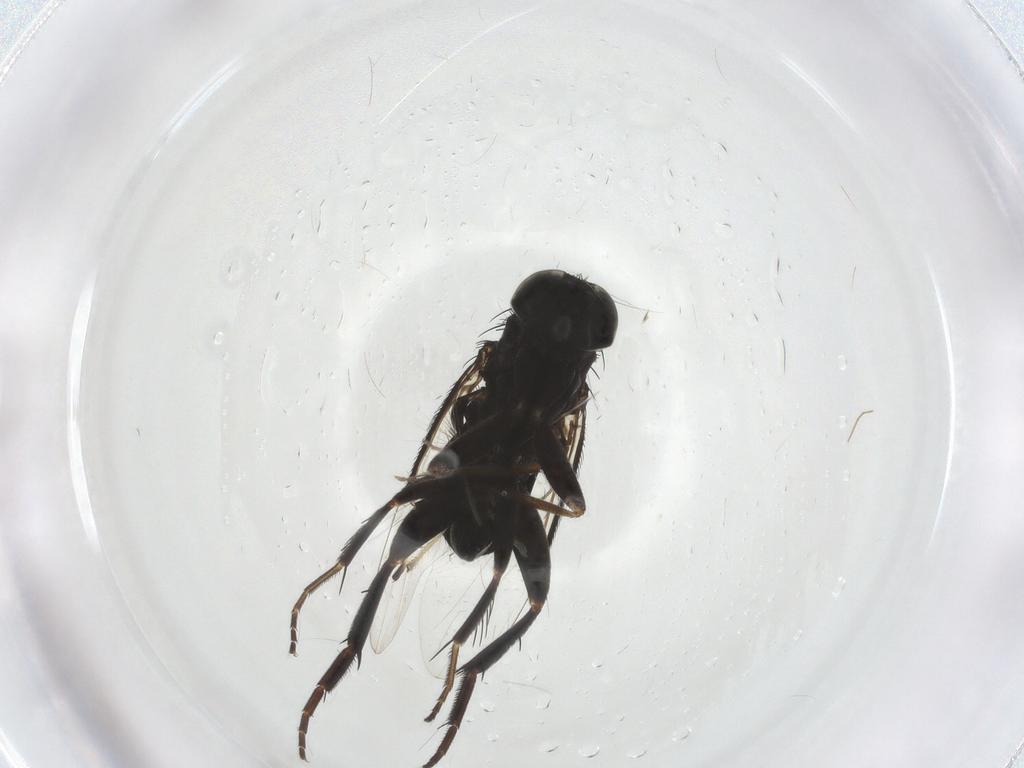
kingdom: Animalia
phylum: Arthropoda
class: Insecta
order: Diptera
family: Phoridae
